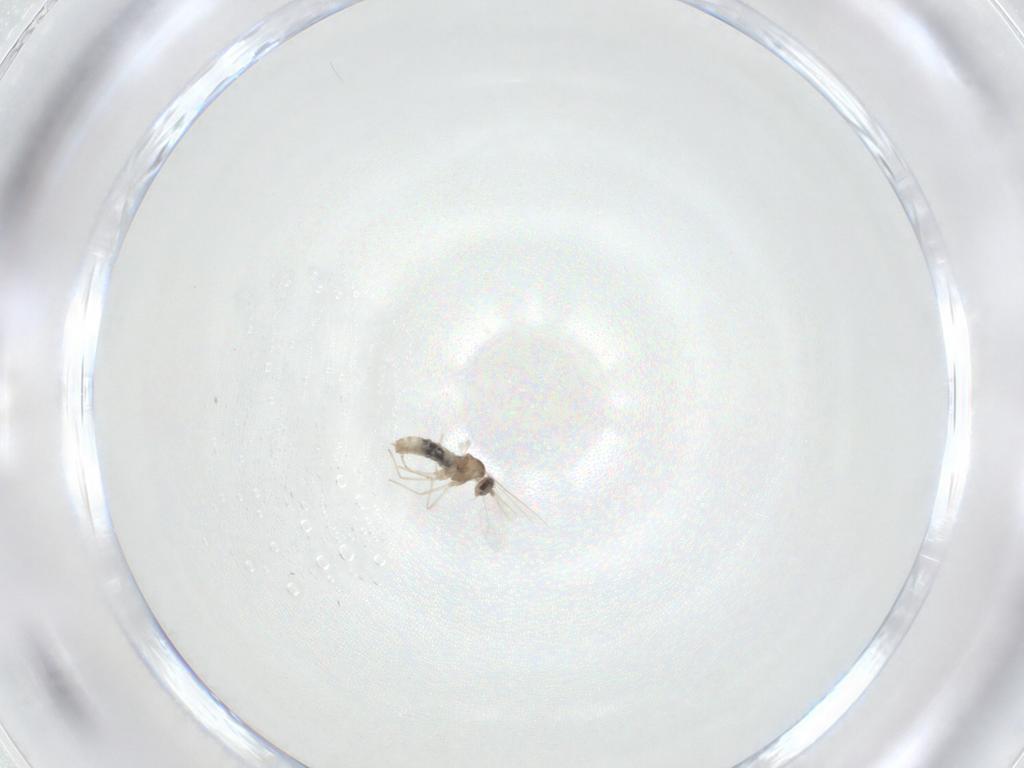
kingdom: Animalia
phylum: Arthropoda
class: Insecta
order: Diptera
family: Cecidomyiidae
